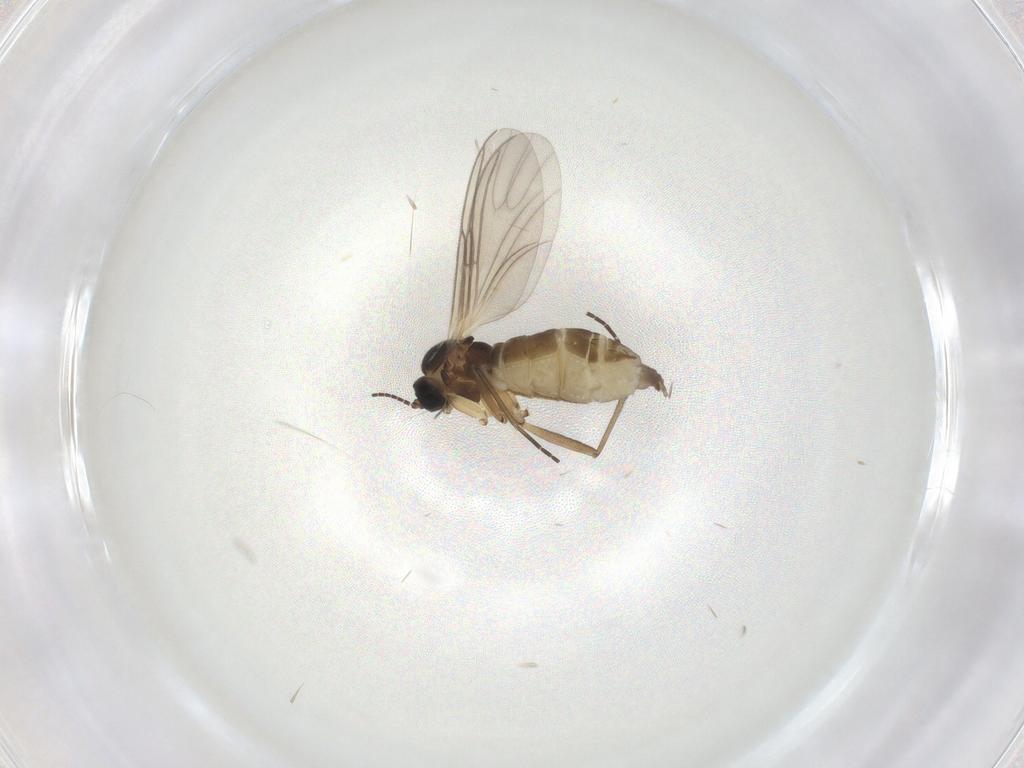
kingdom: Animalia
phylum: Arthropoda
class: Insecta
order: Diptera
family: Sciaridae
